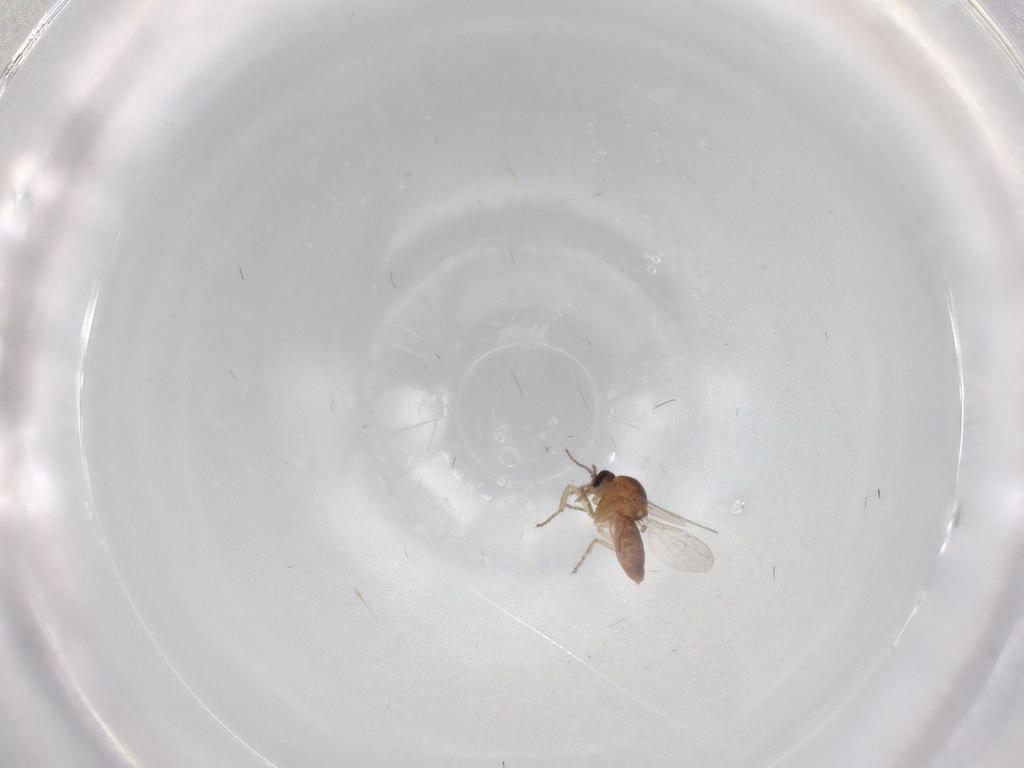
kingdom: Animalia
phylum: Arthropoda
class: Insecta
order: Diptera
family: Ceratopogonidae
